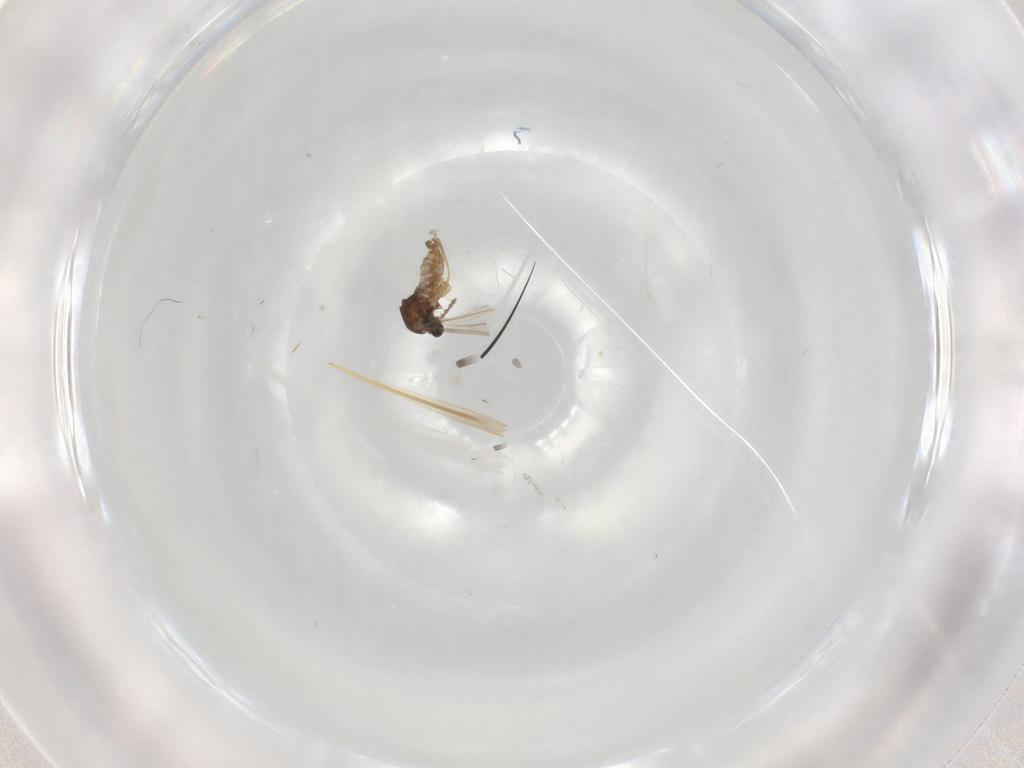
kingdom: Animalia
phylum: Arthropoda
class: Insecta
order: Diptera
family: Cecidomyiidae
